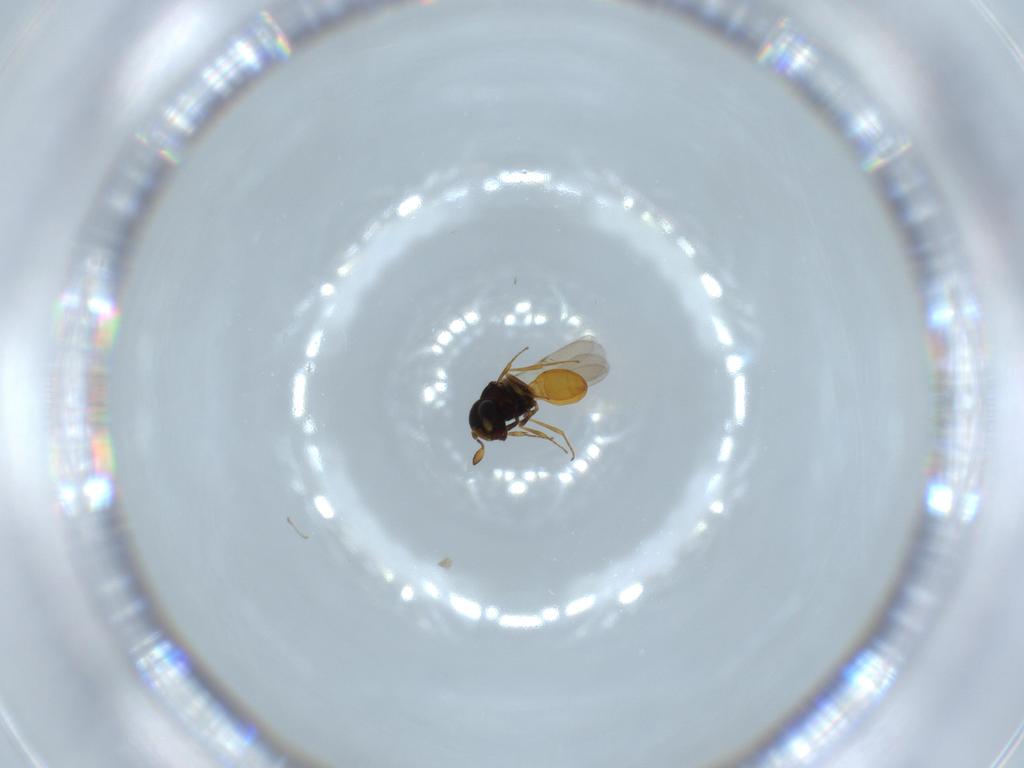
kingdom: Animalia
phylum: Arthropoda
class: Insecta
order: Hymenoptera
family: Scelionidae
